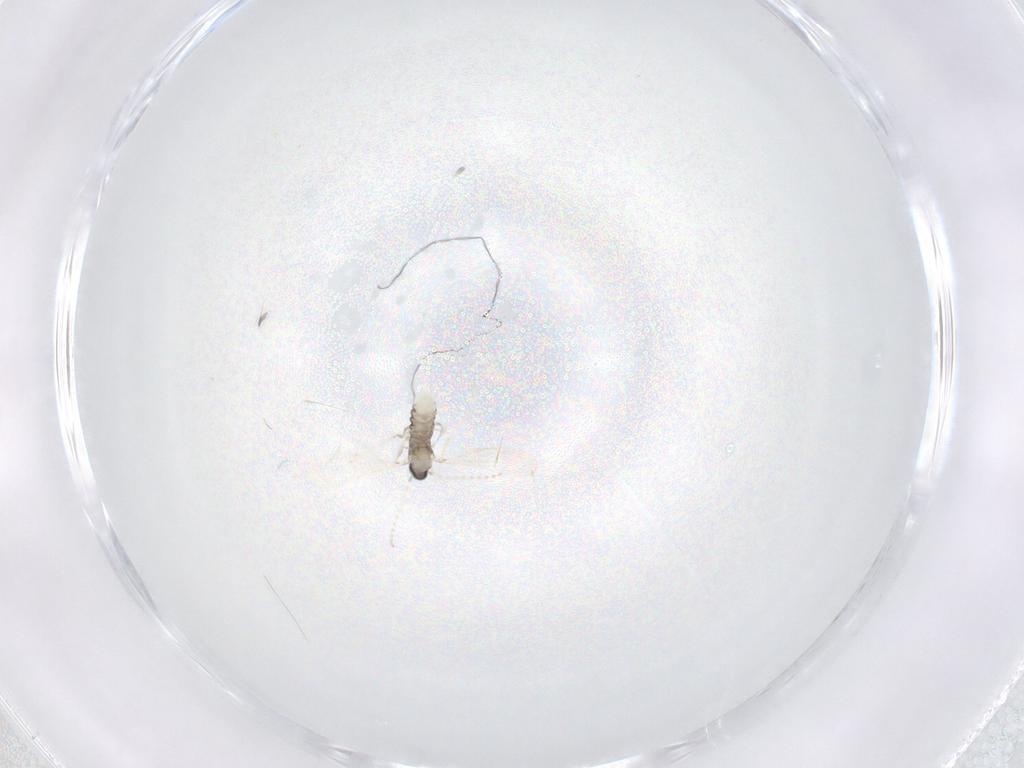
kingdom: Animalia
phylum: Arthropoda
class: Insecta
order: Diptera
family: Cecidomyiidae
